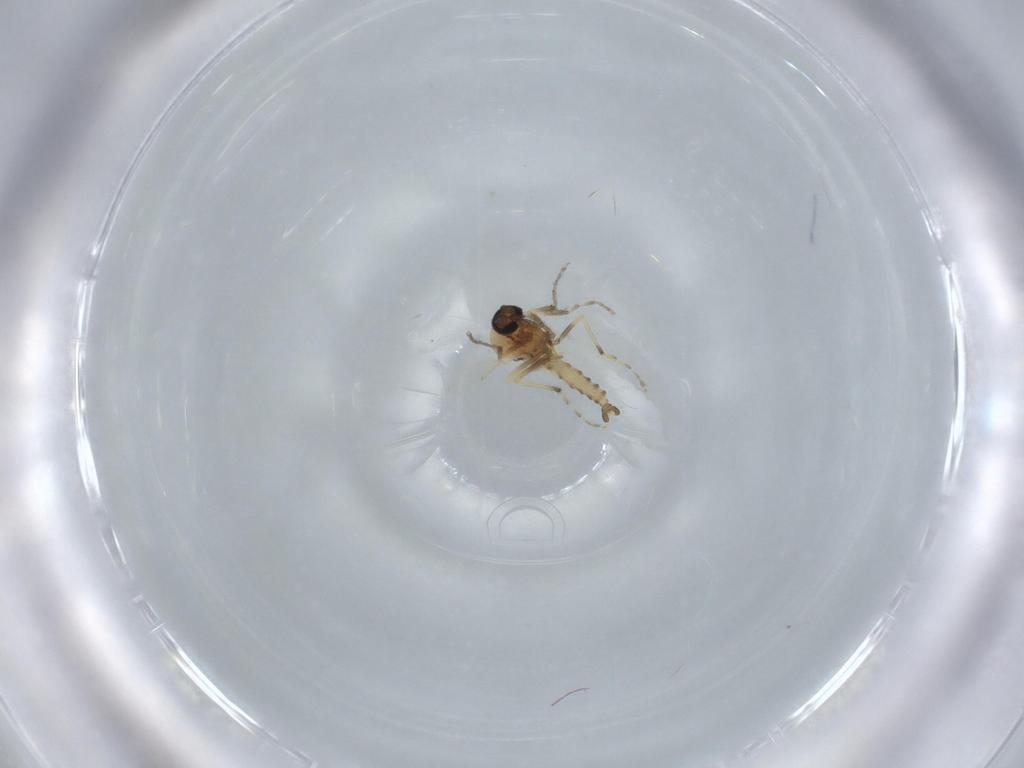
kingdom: Animalia
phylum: Arthropoda
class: Insecta
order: Diptera
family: Ceratopogonidae
